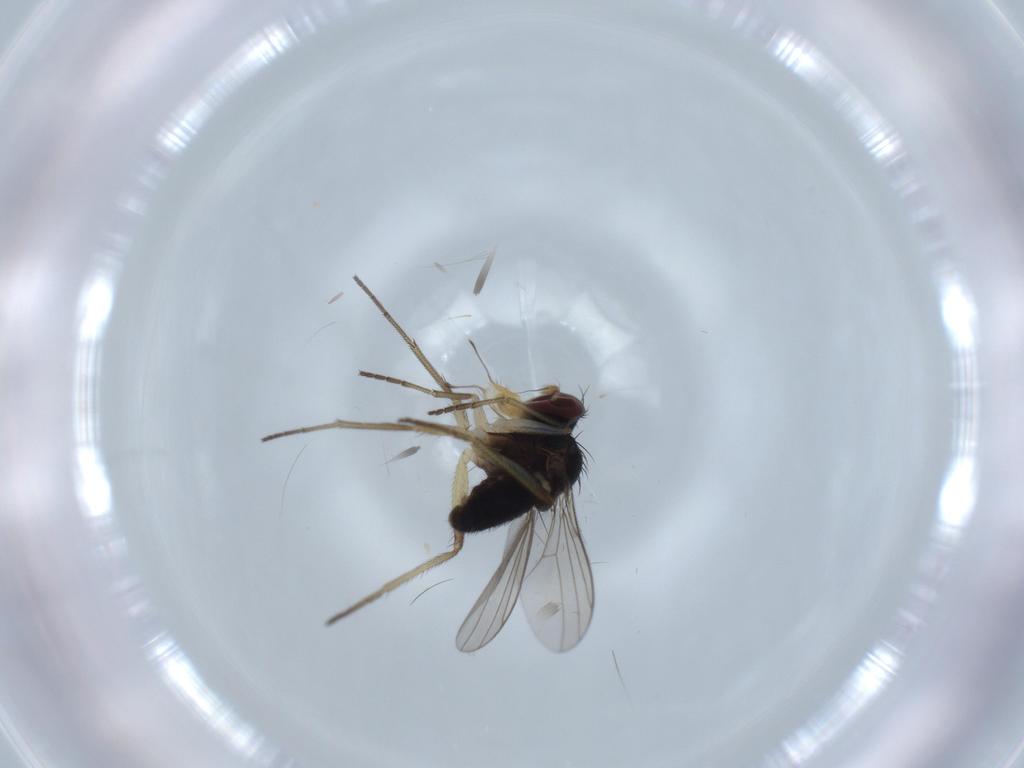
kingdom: Animalia
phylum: Arthropoda
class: Insecta
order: Diptera
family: Dolichopodidae
